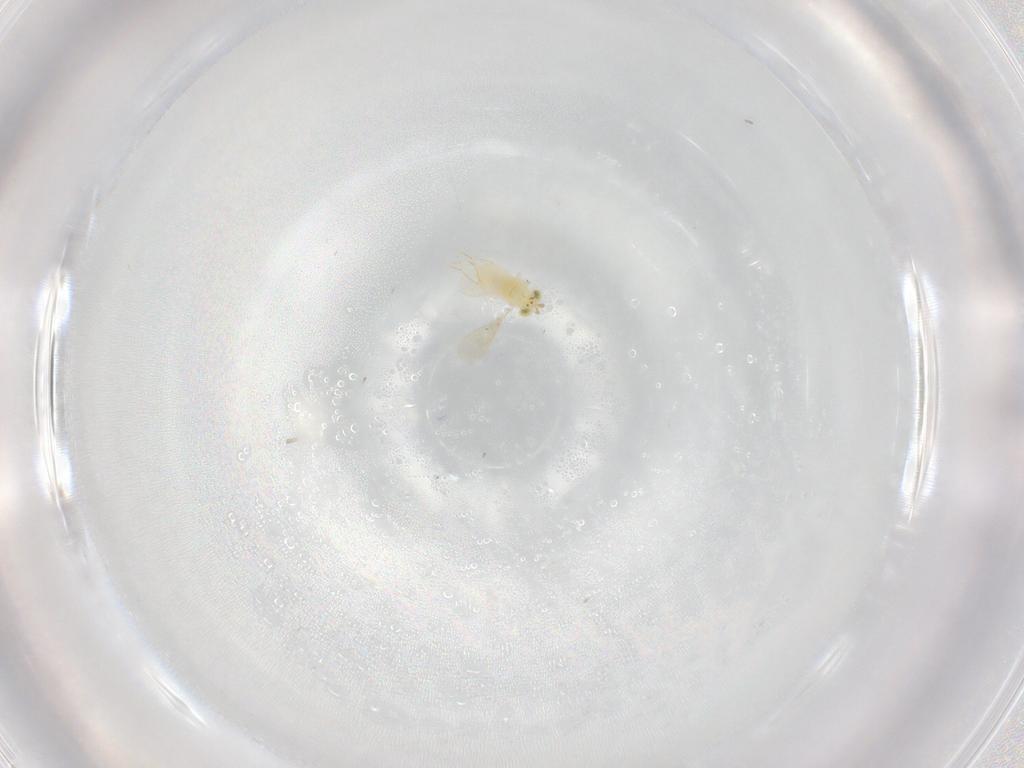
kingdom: Animalia
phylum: Arthropoda
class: Insecta
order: Hymenoptera
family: Aphelinidae
